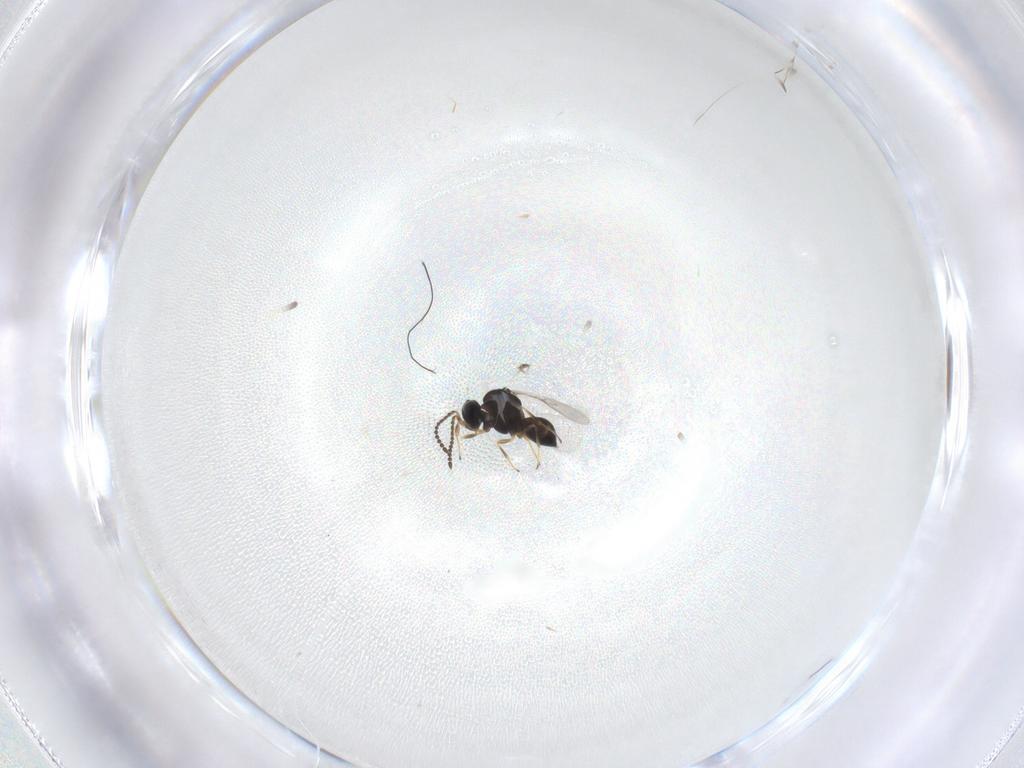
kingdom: Animalia
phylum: Arthropoda
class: Insecta
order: Hymenoptera
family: Scelionidae
